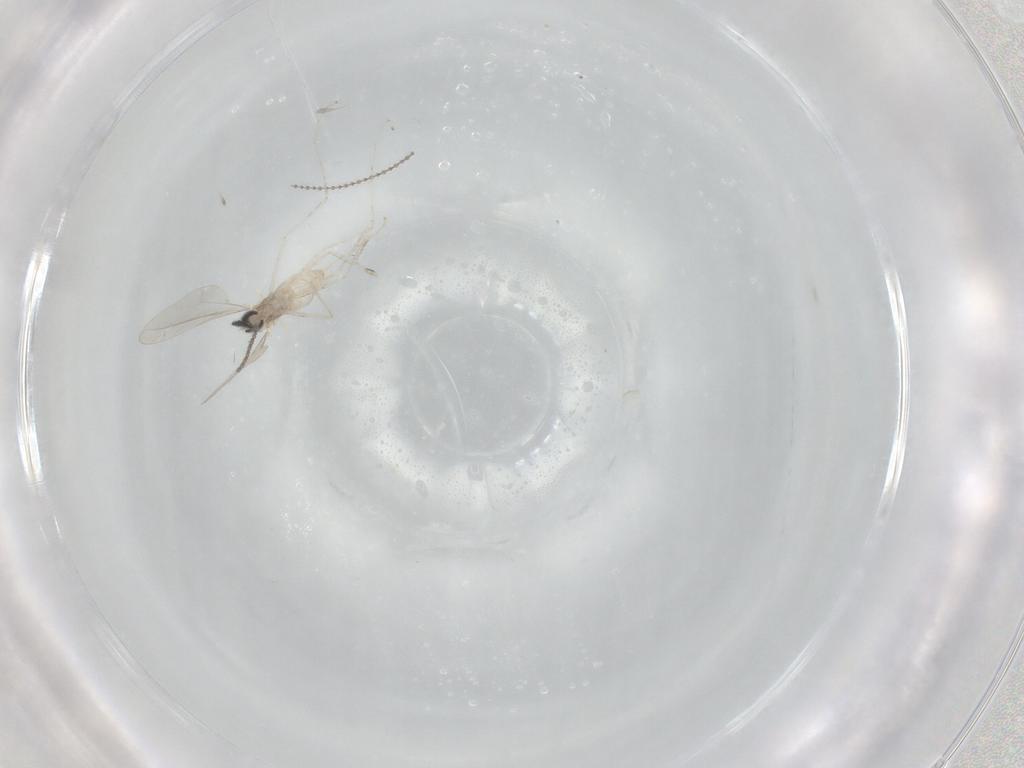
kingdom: Animalia
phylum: Arthropoda
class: Insecta
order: Diptera
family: Cecidomyiidae
